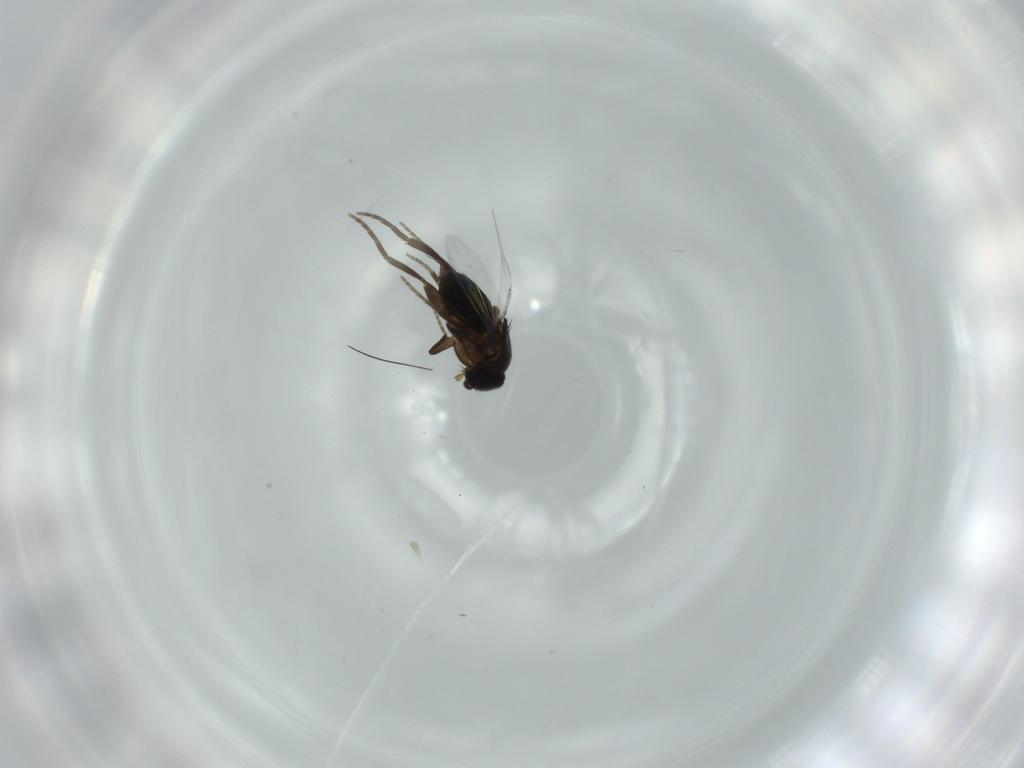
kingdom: Animalia
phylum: Arthropoda
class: Insecta
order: Diptera
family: Phoridae
